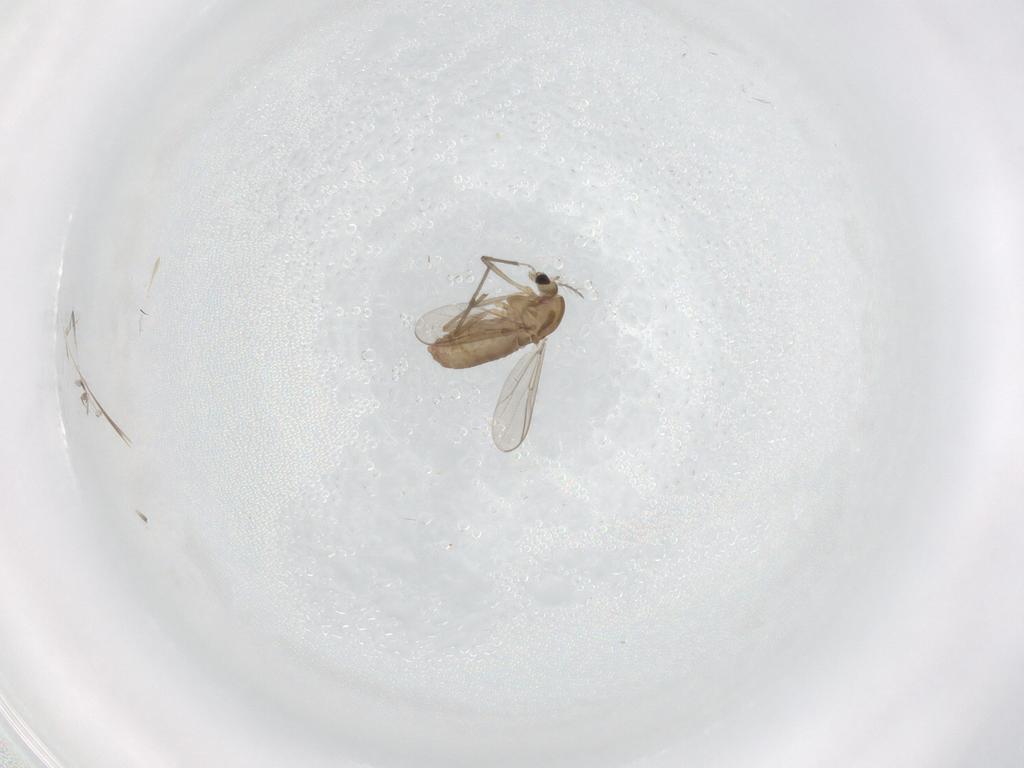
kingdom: Animalia
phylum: Arthropoda
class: Insecta
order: Diptera
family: Chironomidae
